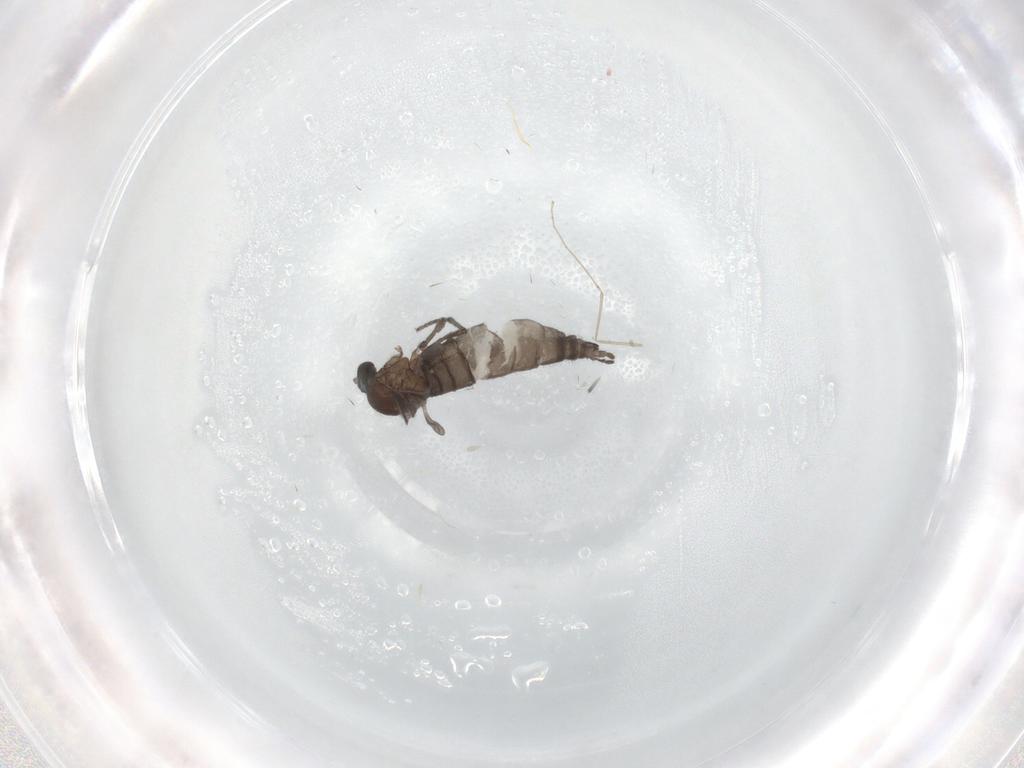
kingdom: Animalia
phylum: Arthropoda
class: Insecta
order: Diptera
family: Sciaridae
